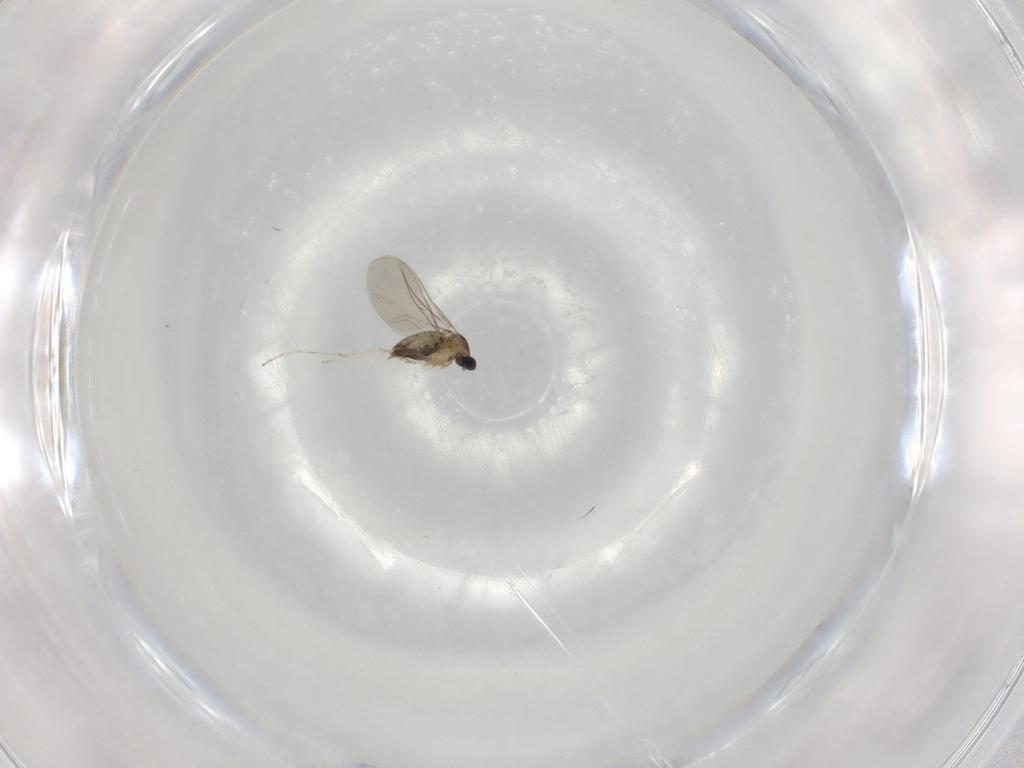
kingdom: Animalia
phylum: Arthropoda
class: Insecta
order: Diptera
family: Cecidomyiidae
